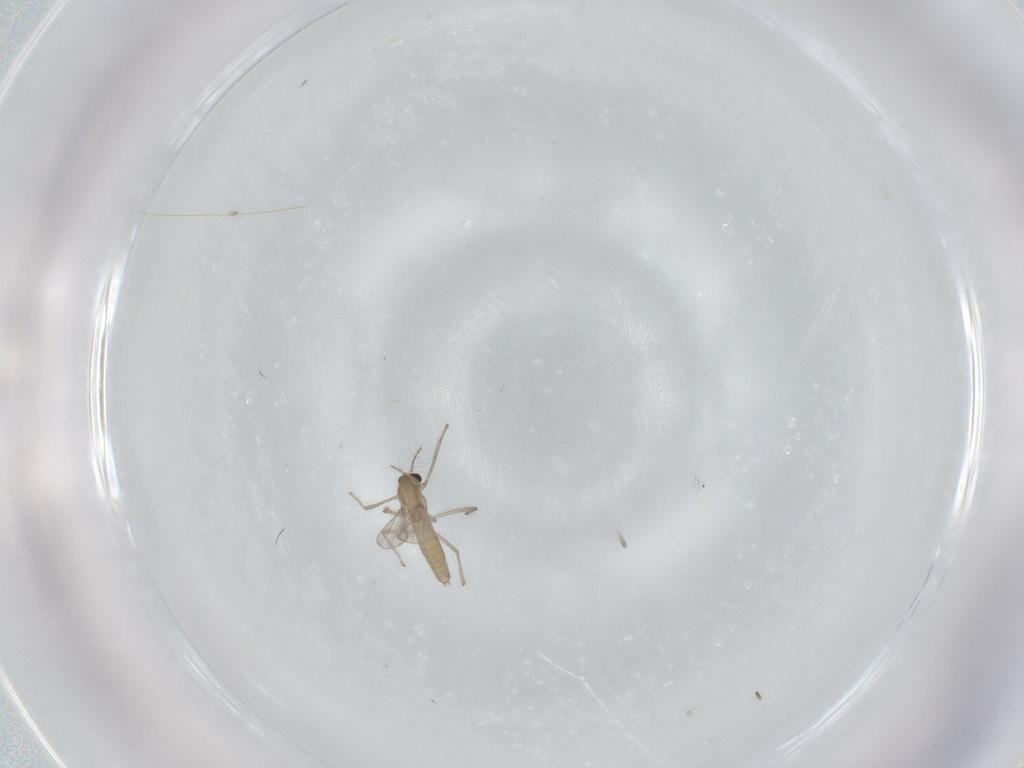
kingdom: Animalia
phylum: Arthropoda
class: Insecta
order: Diptera
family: Chironomidae
